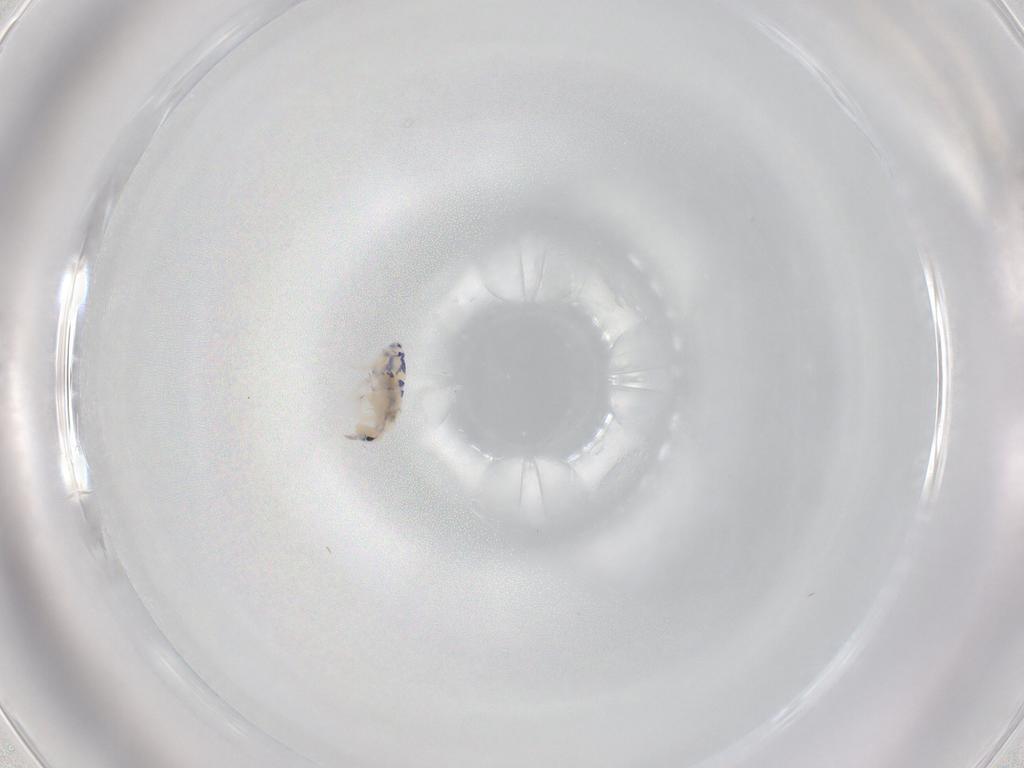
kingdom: Animalia
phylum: Arthropoda
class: Collembola
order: Entomobryomorpha
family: Entomobryidae
